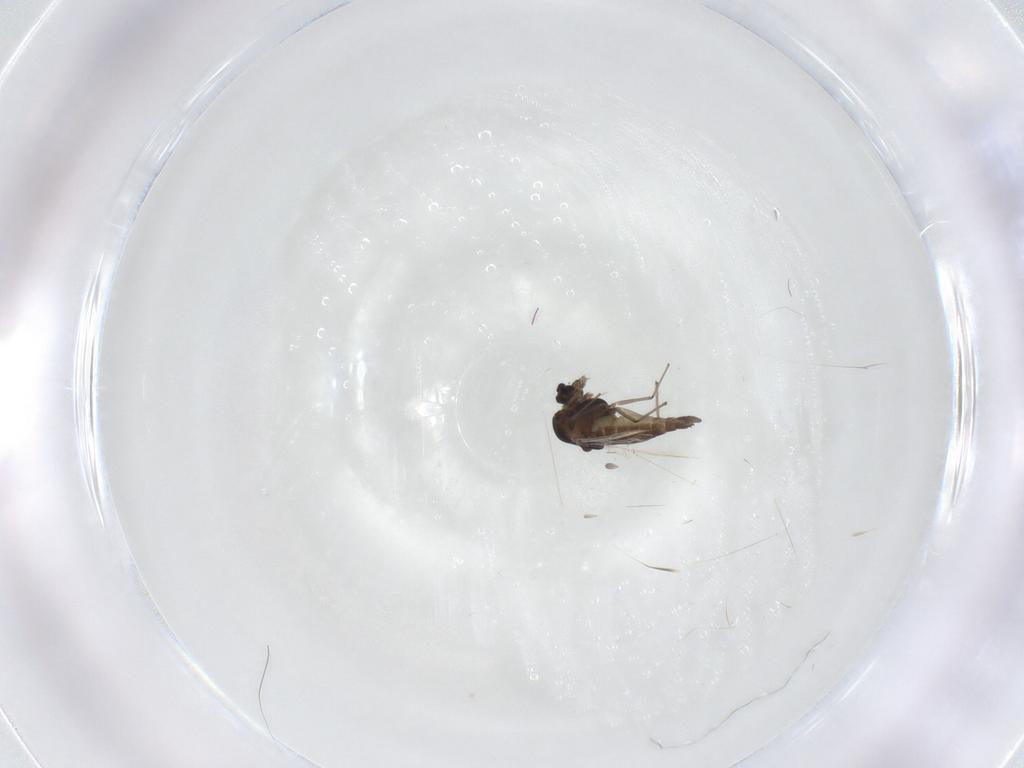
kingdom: Animalia
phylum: Arthropoda
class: Insecta
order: Diptera
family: Chironomidae
